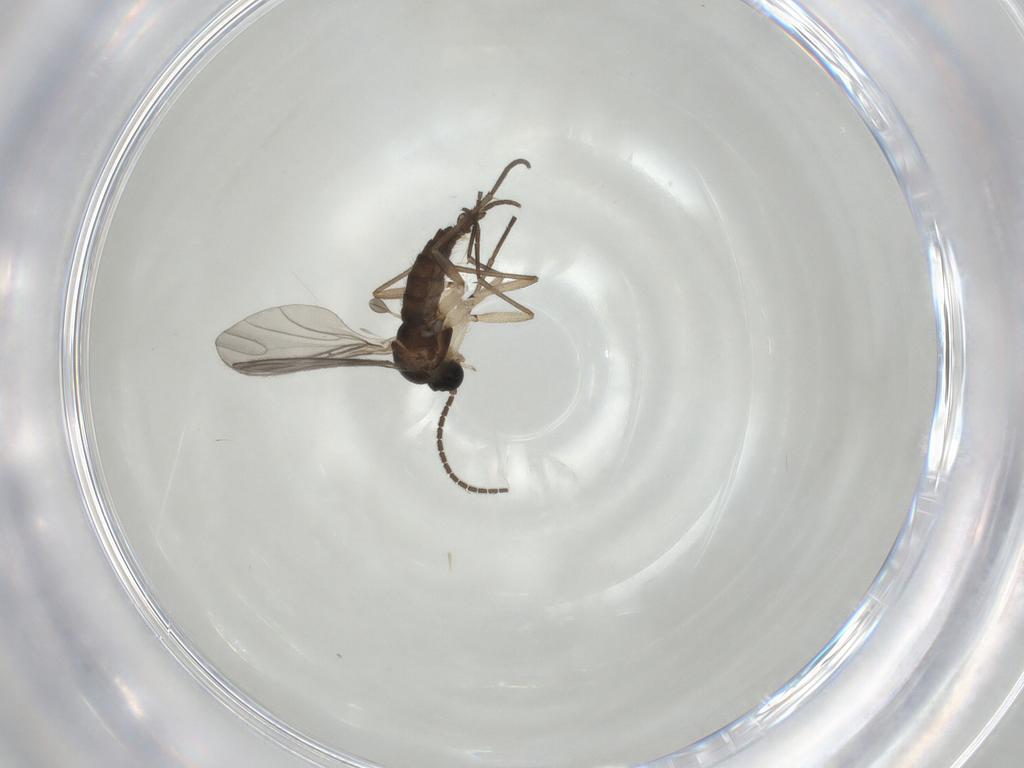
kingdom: Animalia
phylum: Arthropoda
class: Insecta
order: Diptera
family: Sciaridae
